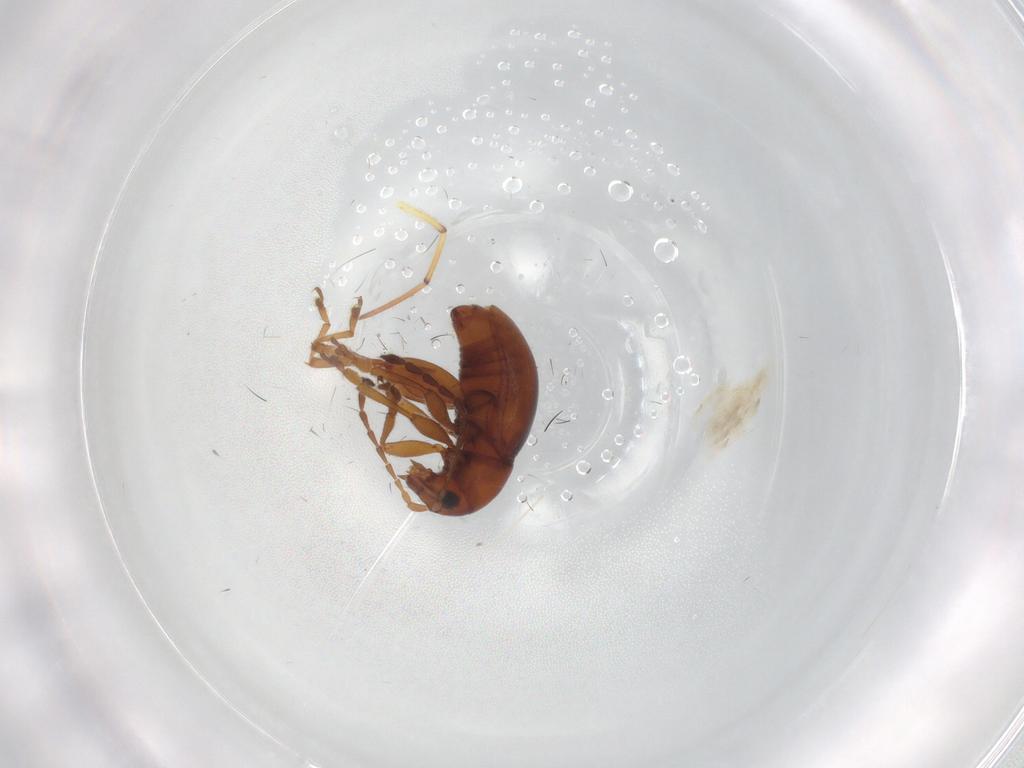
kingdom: Animalia
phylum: Arthropoda
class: Insecta
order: Coleoptera
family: Chrysomelidae
